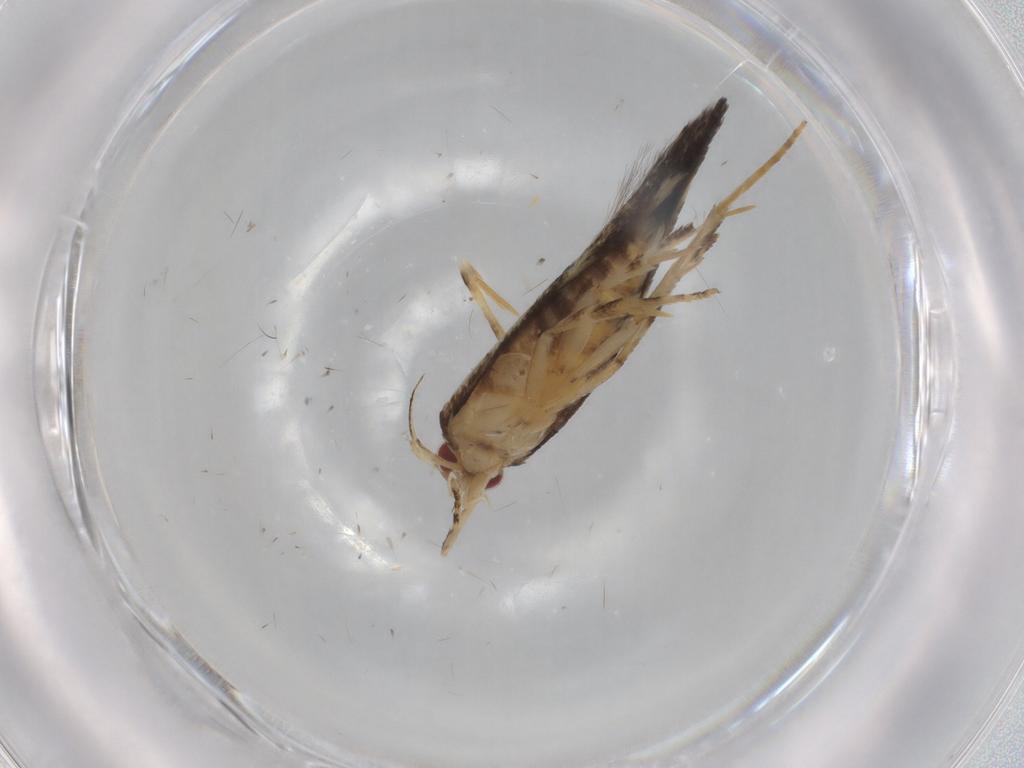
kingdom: Animalia
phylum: Arthropoda
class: Insecta
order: Lepidoptera
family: Cosmopterigidae
